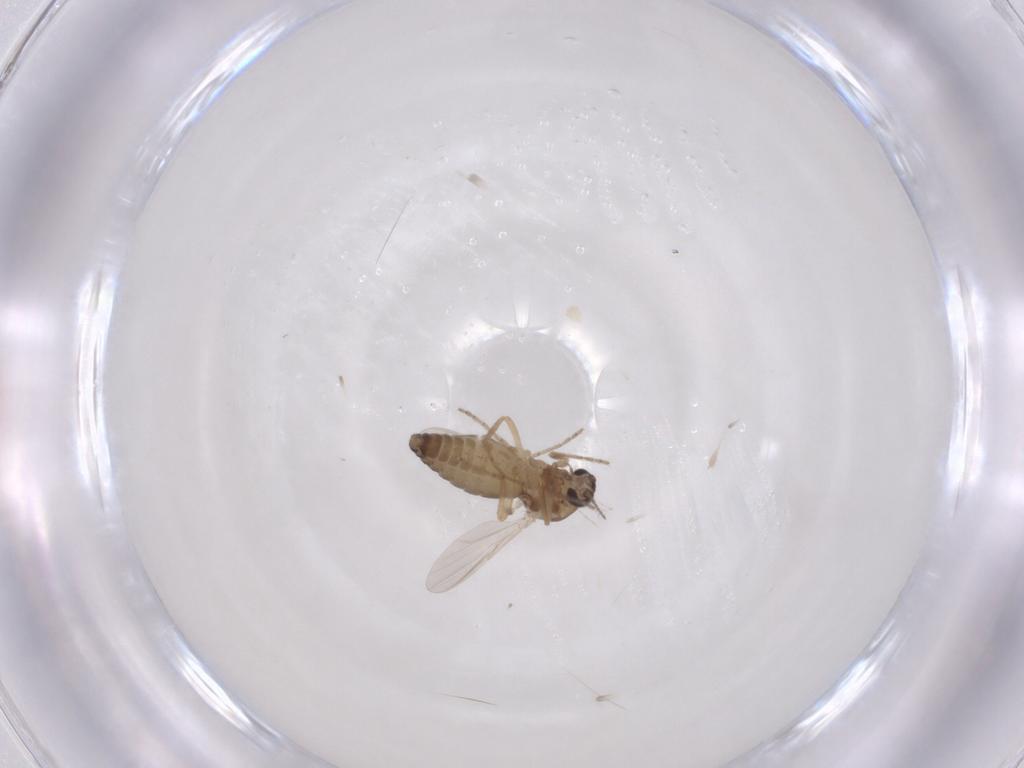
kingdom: Animalia
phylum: Arthropoda
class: Insecta
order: Diptera
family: Ceratopogonidae
